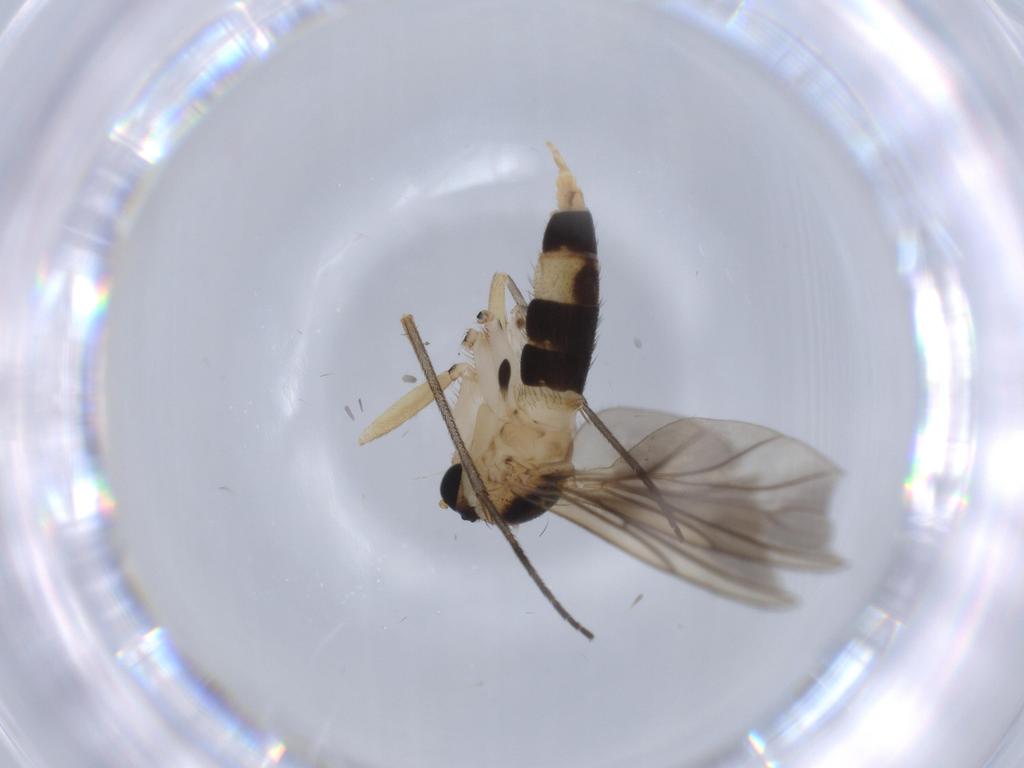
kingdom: Animalia
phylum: Arthropoda
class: Insecta
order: Diptera
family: Sciaridae
